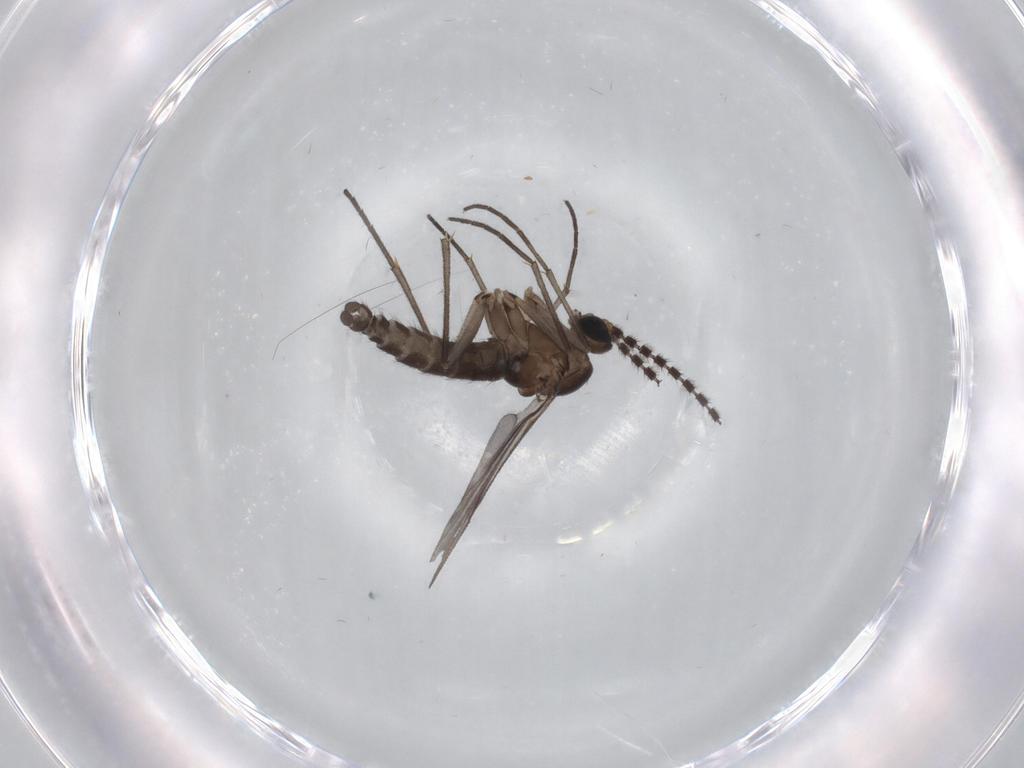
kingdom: Animalia
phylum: Arthropoda
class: Insecta
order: Diptera
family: Sciaridae
